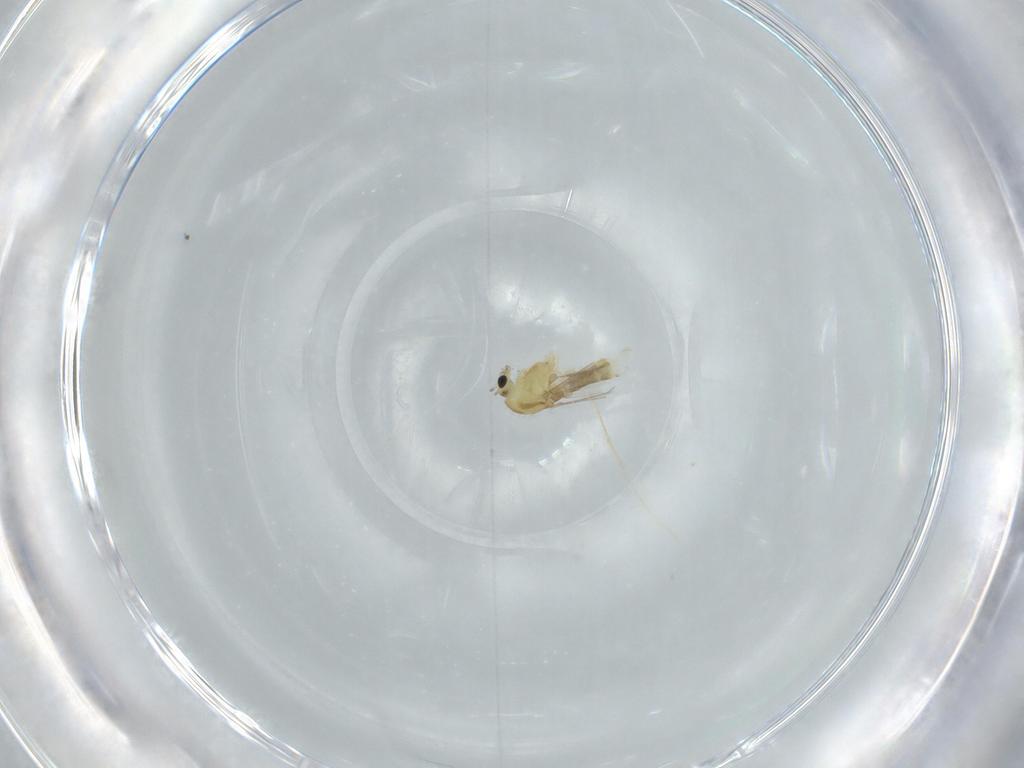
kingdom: Animalia
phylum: Arthropoda
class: Insecta
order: Diptera
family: Chironomidae
